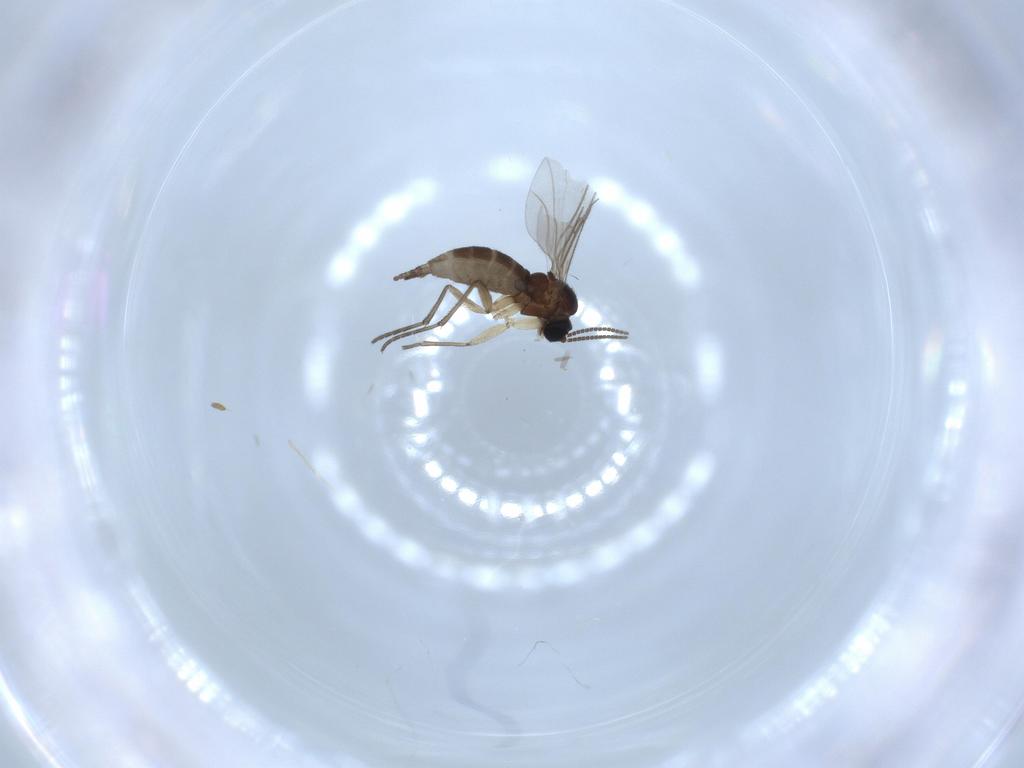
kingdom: Animalia
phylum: Arthropoda
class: Insecta
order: Diptera
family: Sciaridae
